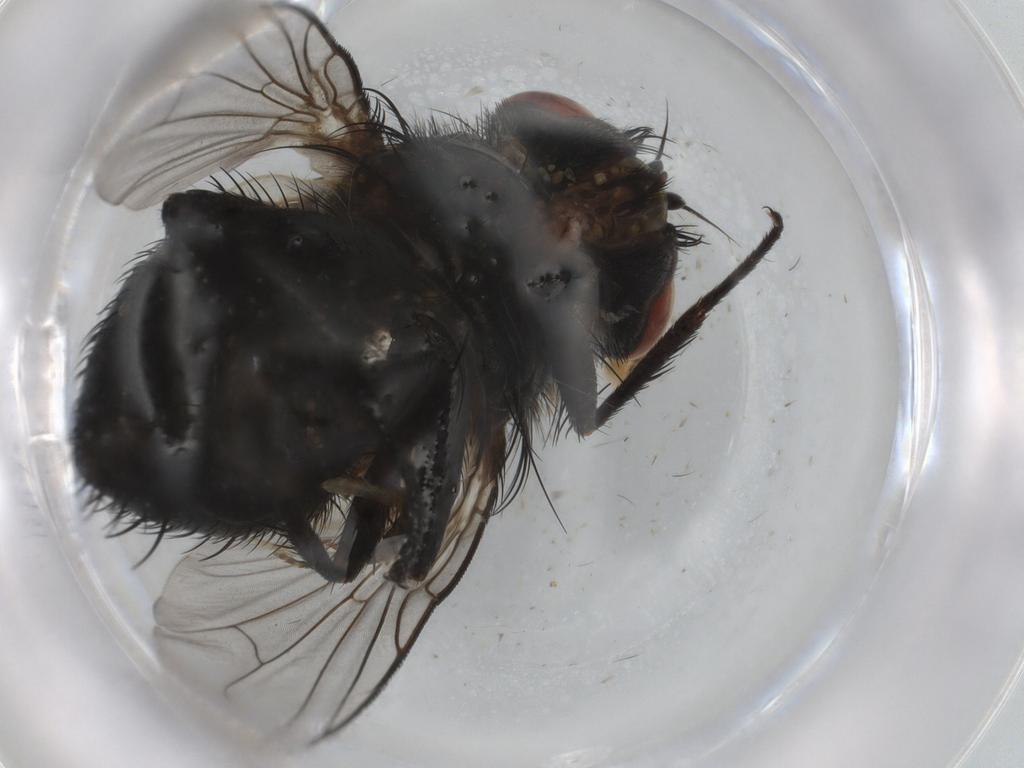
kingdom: Animalia
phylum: Arthropoda
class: Insecta
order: Diptera
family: Tachinidae
